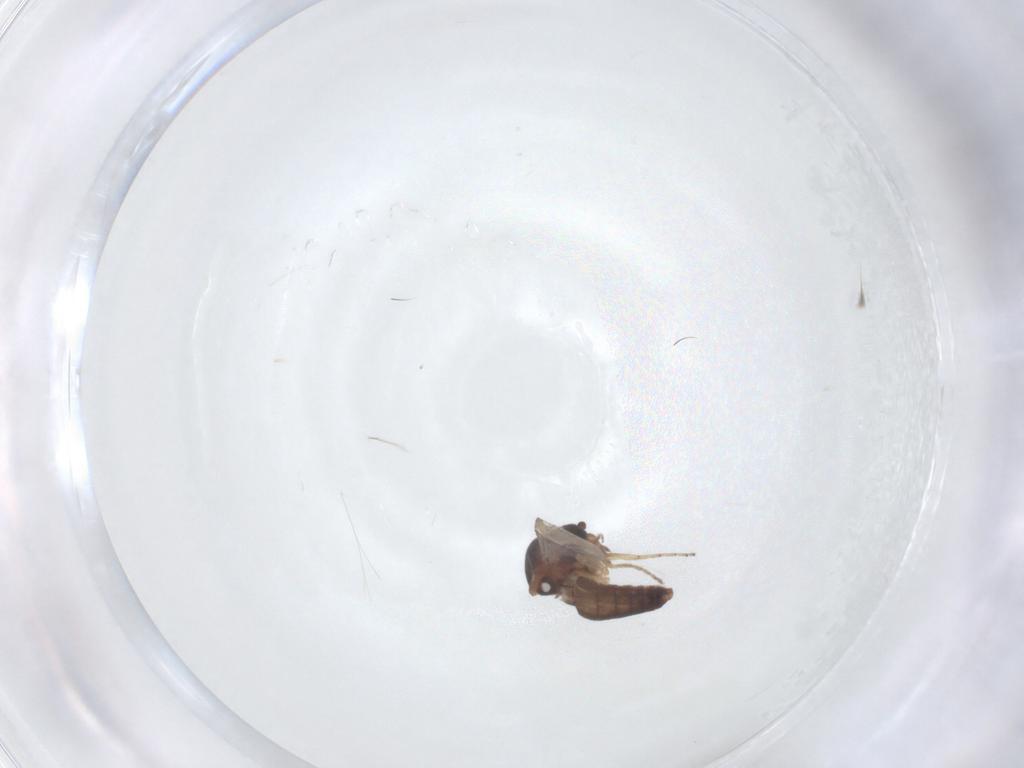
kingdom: Animalia
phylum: Arthropoda
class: Insecta
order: Diptera
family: Ceratopogonidae
